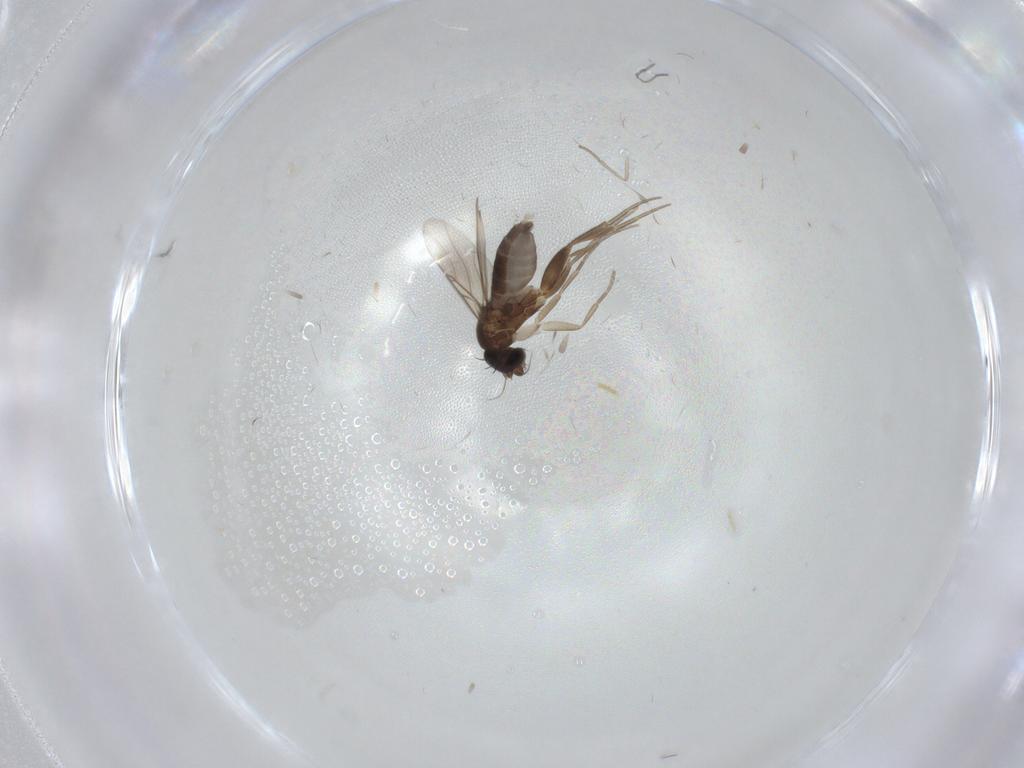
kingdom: Animalia
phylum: Arthropoda
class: Insecta
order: Diptera
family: Phoridae
